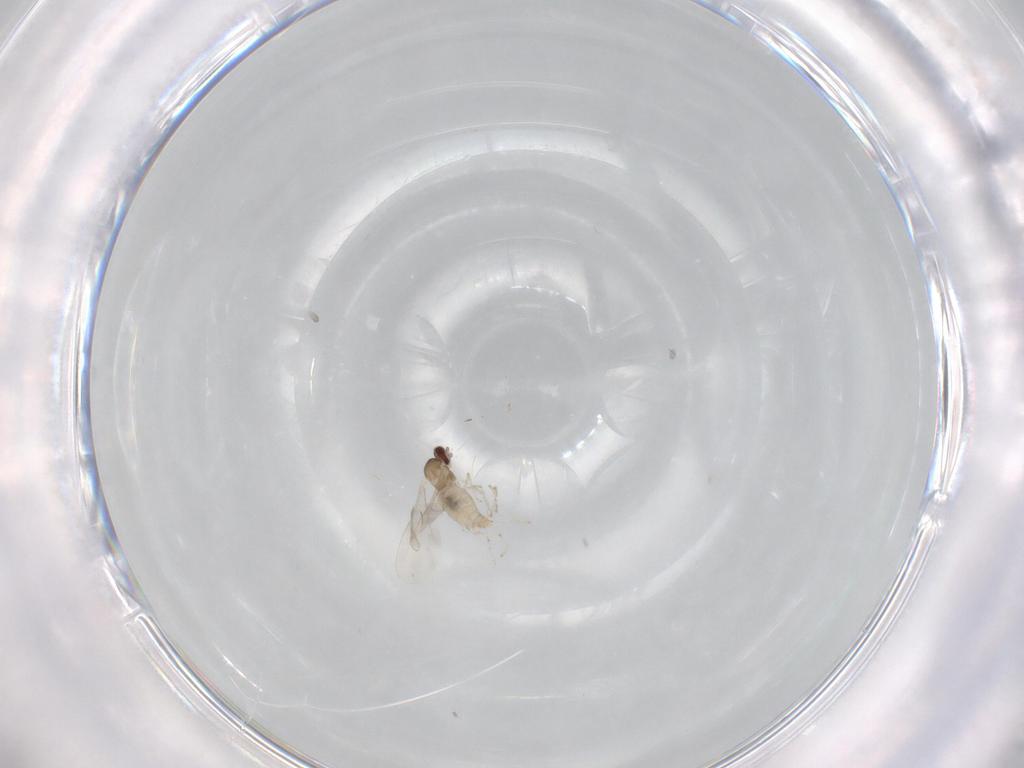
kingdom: Animalia
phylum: Arthropoda
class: Insecta
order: Diptera
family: Cecidomyiidae
